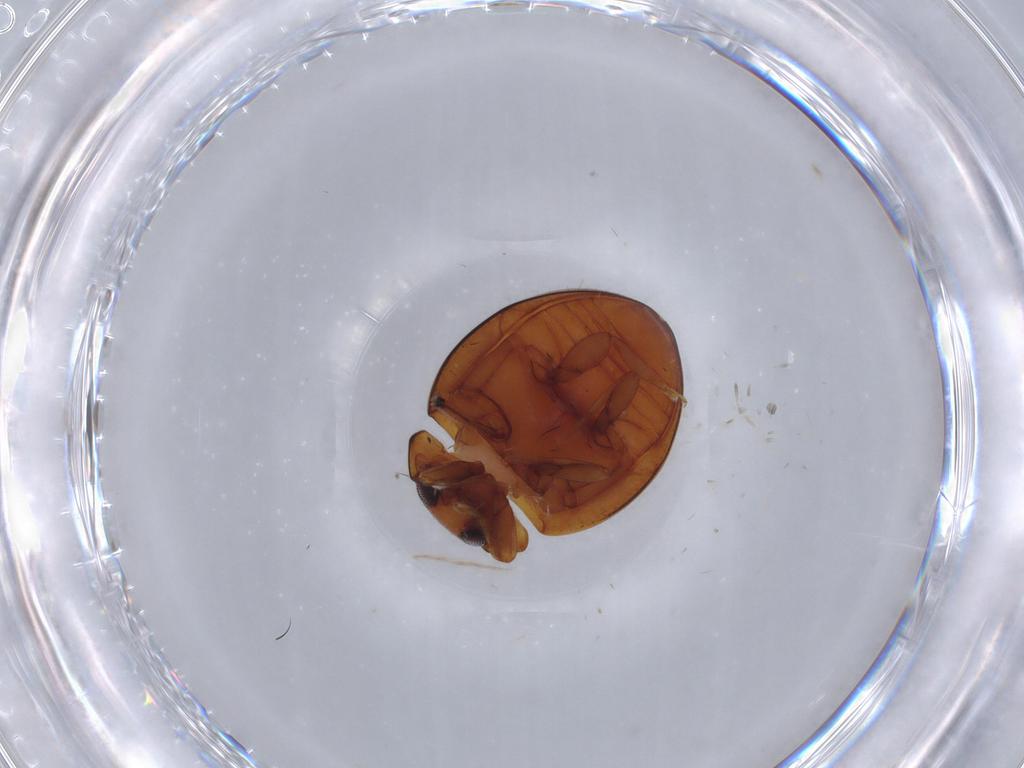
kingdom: Animalia
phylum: Arthropoda
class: Insecta
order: Coleoptera
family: Coccinellidae
